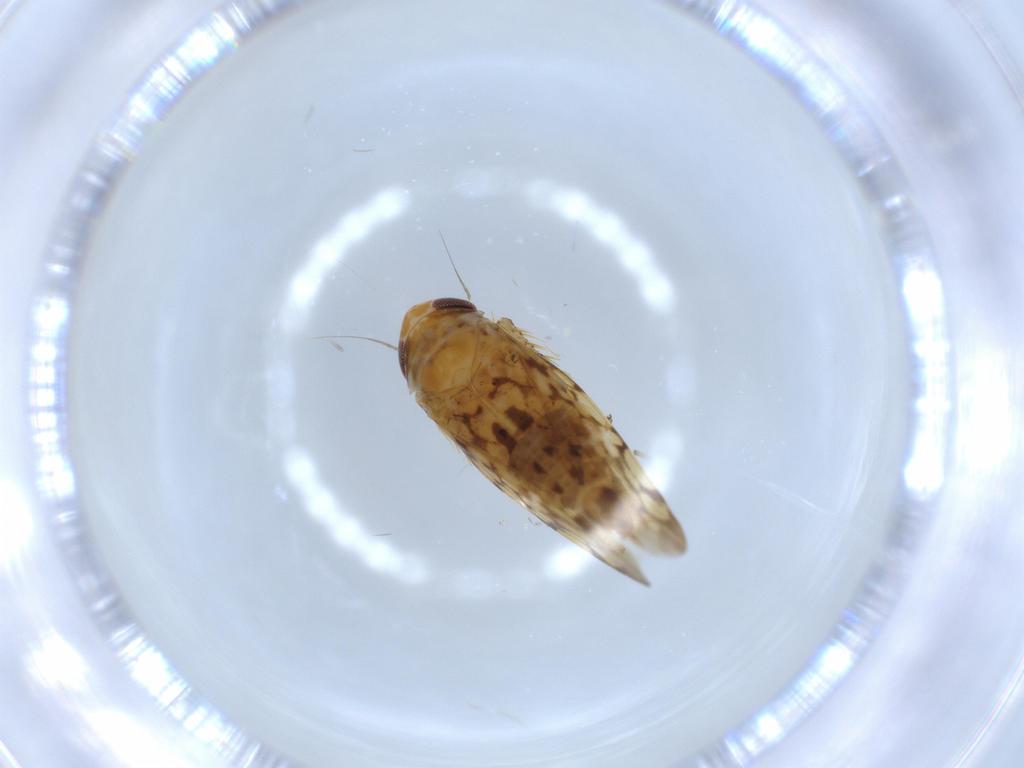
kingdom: Animalia
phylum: Arthropoda
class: Insecta
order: Hemiptera
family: Cicadellidae
